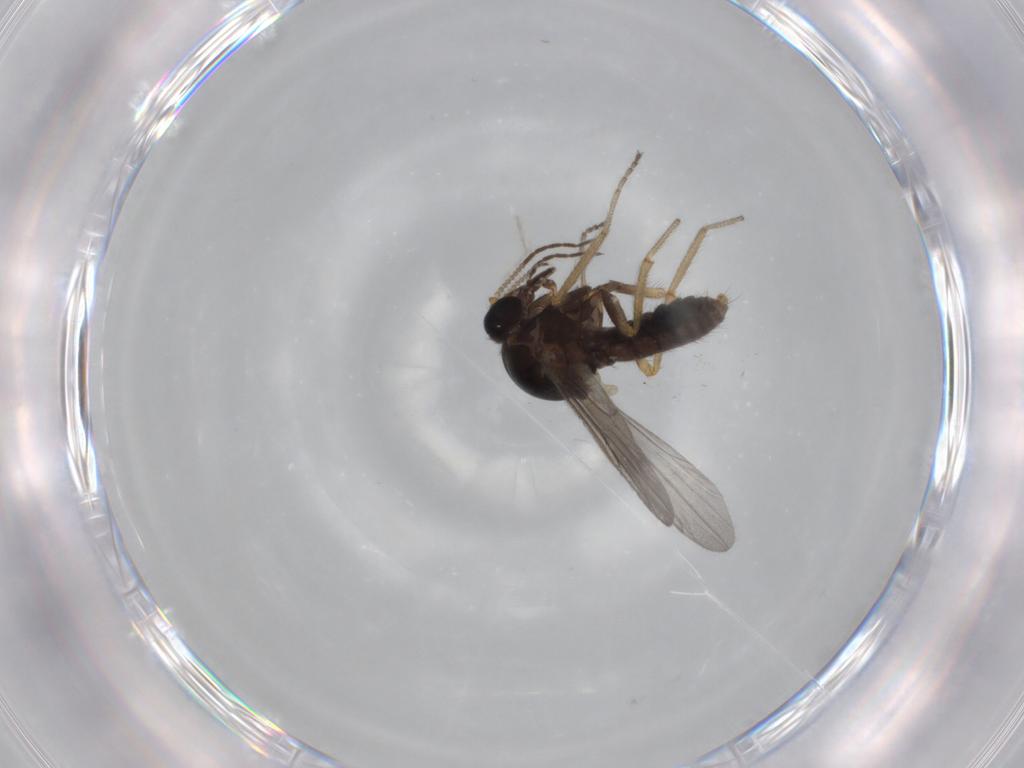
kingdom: Animalia
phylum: Arthropoda
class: Insecta
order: Diptera
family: Ceratopogonidae
